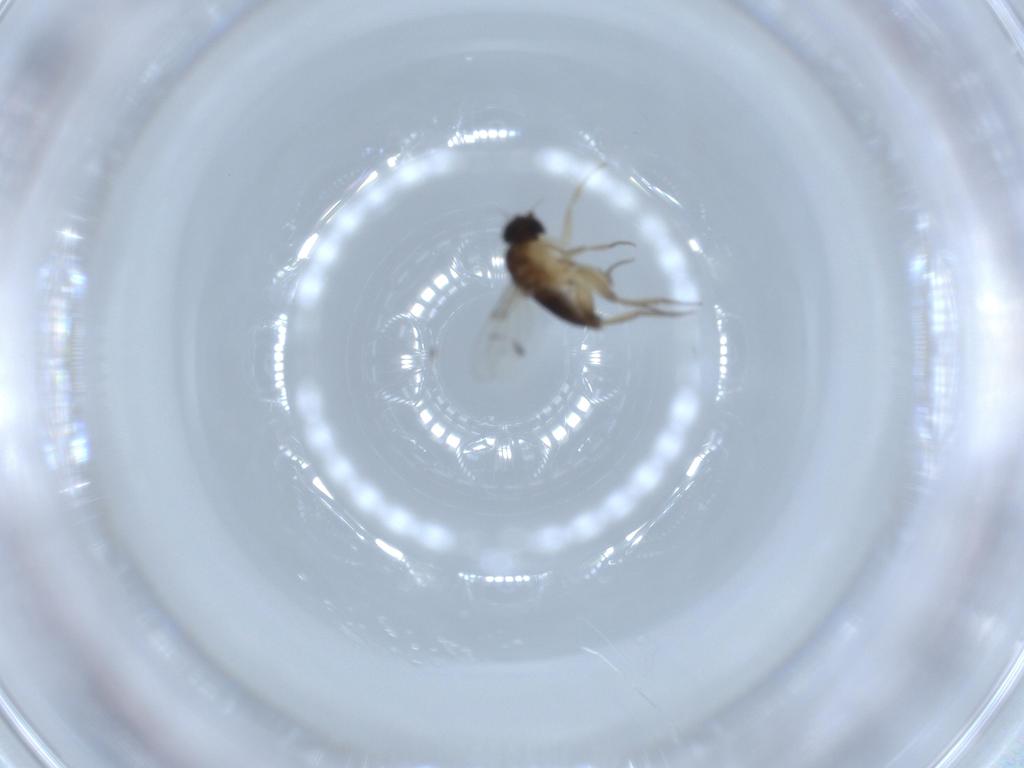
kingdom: Animalia
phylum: Arthropoda
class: Insecta
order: Diptera
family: Phoridae
